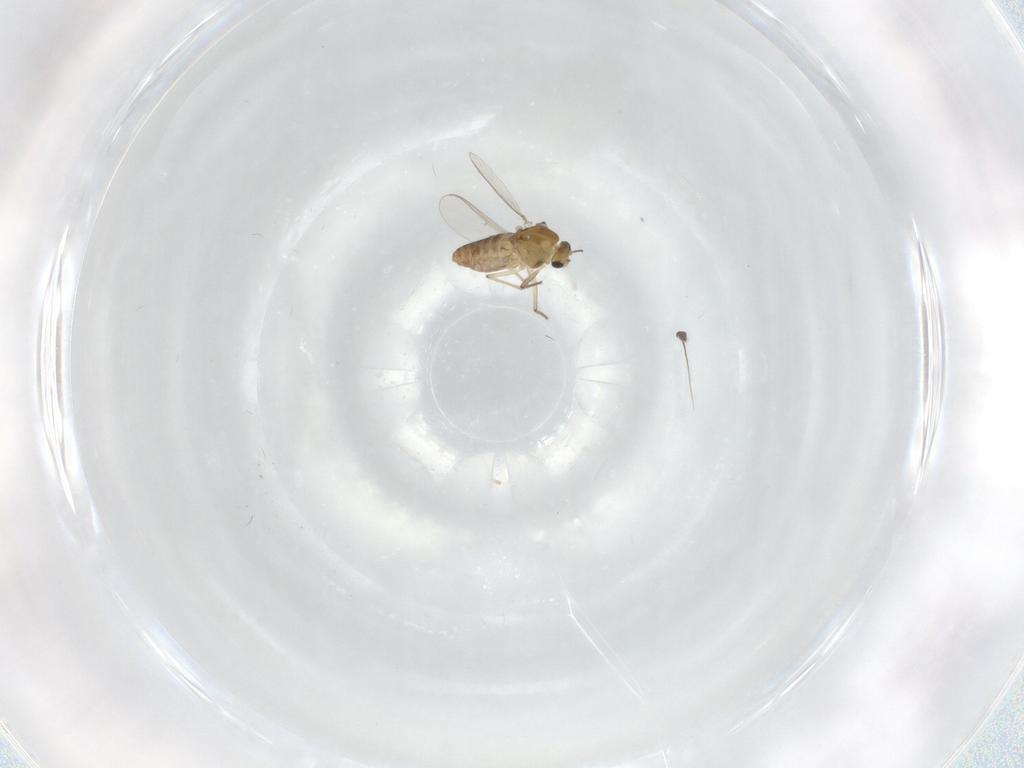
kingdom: Animalia
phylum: Arthropoda
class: Insecta
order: Diptera
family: Chironomidae
